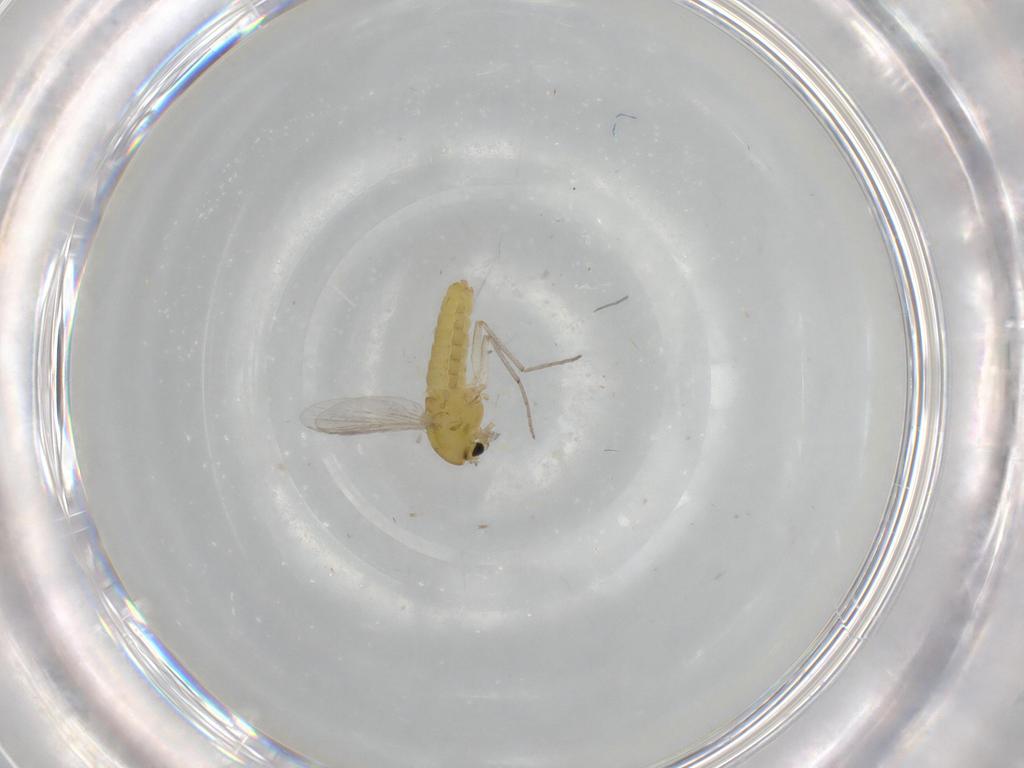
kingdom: Animalia
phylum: Arthropoda
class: Insecta
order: Diptera
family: Chironomidae
